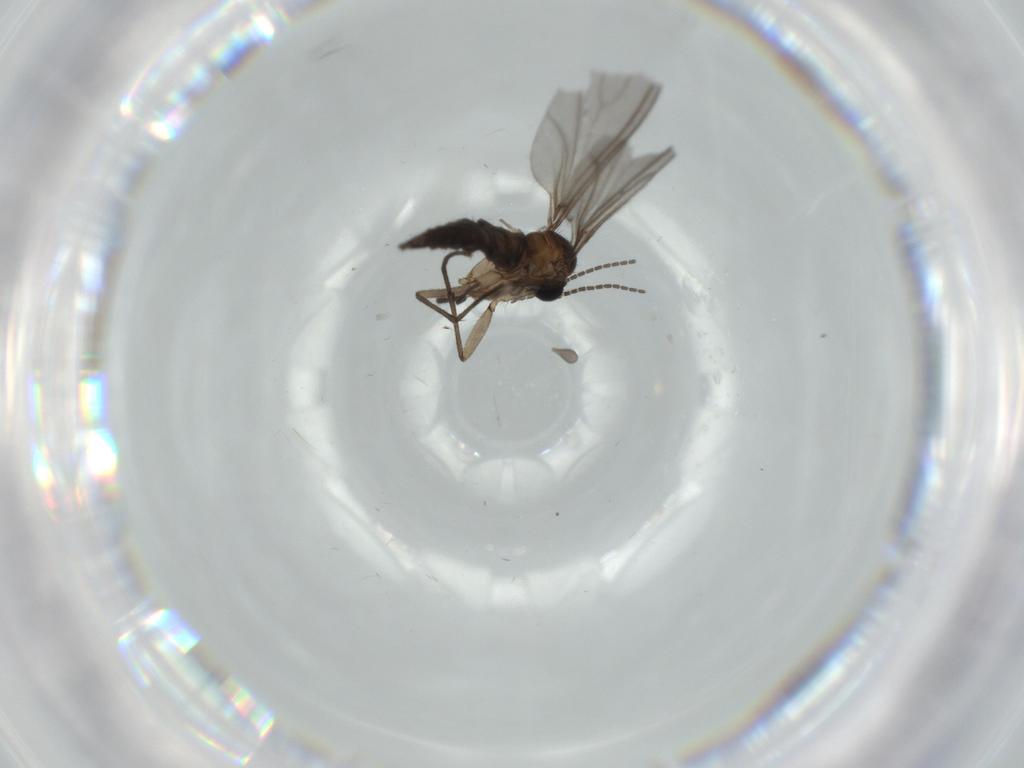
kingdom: Animalia
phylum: Arthropoda
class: Insecta
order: Diptera
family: Sciaridae
